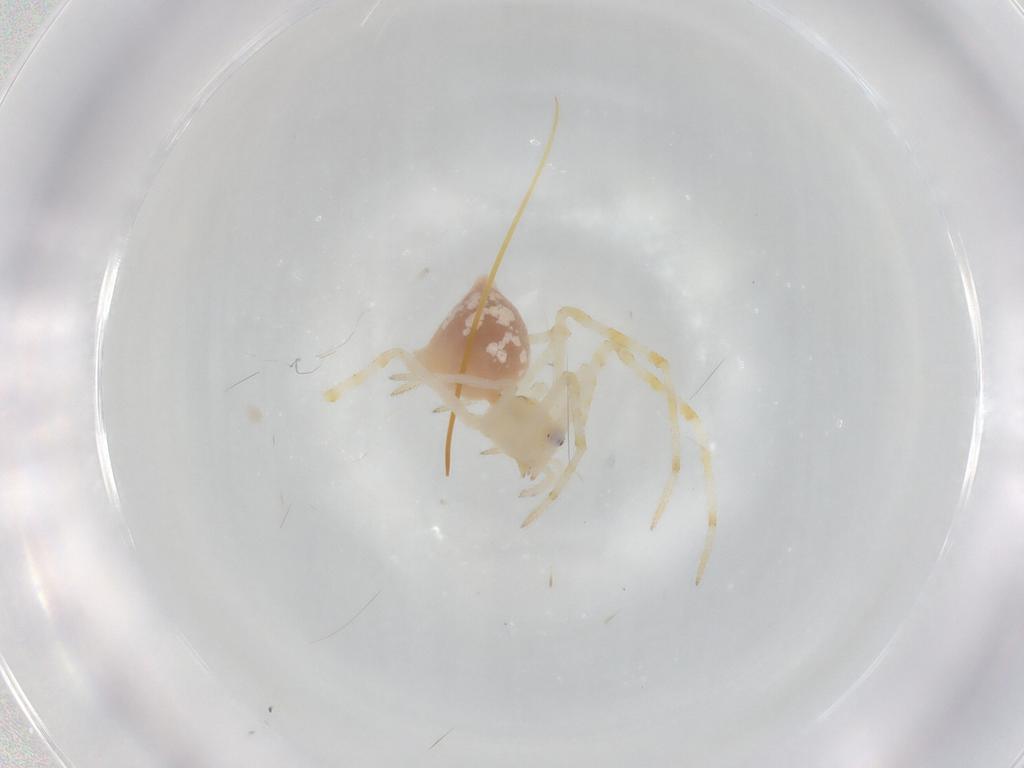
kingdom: Animalia
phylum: Arthropoda
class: Arachnida
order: Araneae
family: Theridiidae
